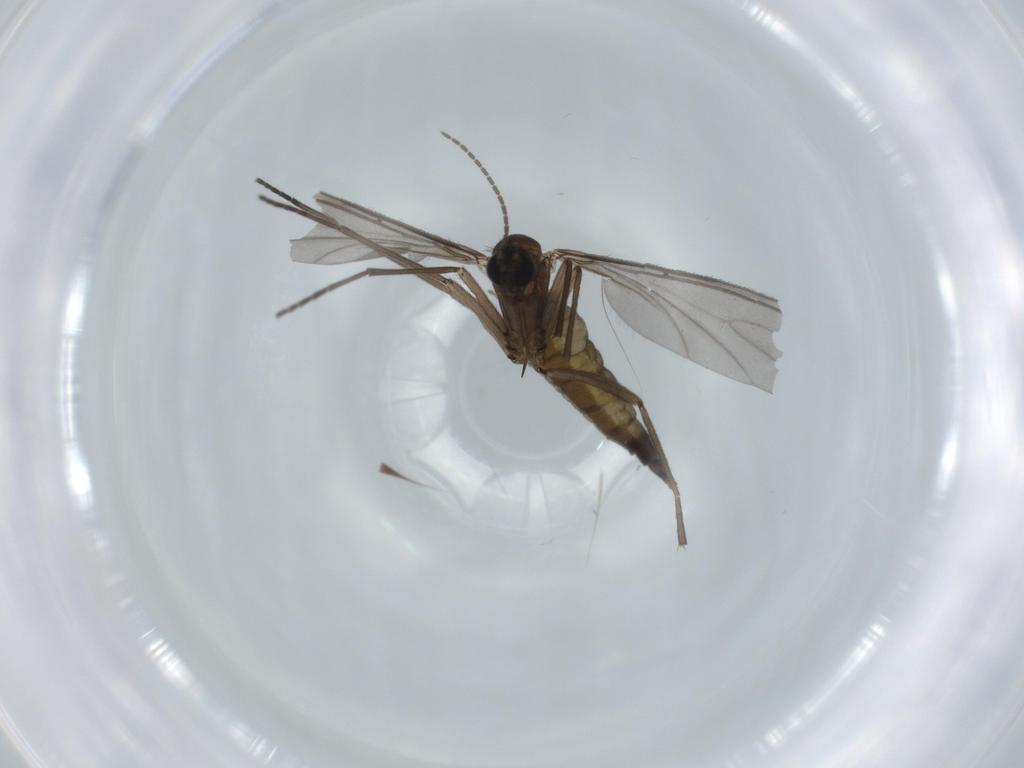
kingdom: Animalia
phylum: Arthropoda
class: Insecta
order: Diptera
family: Sciaridae
